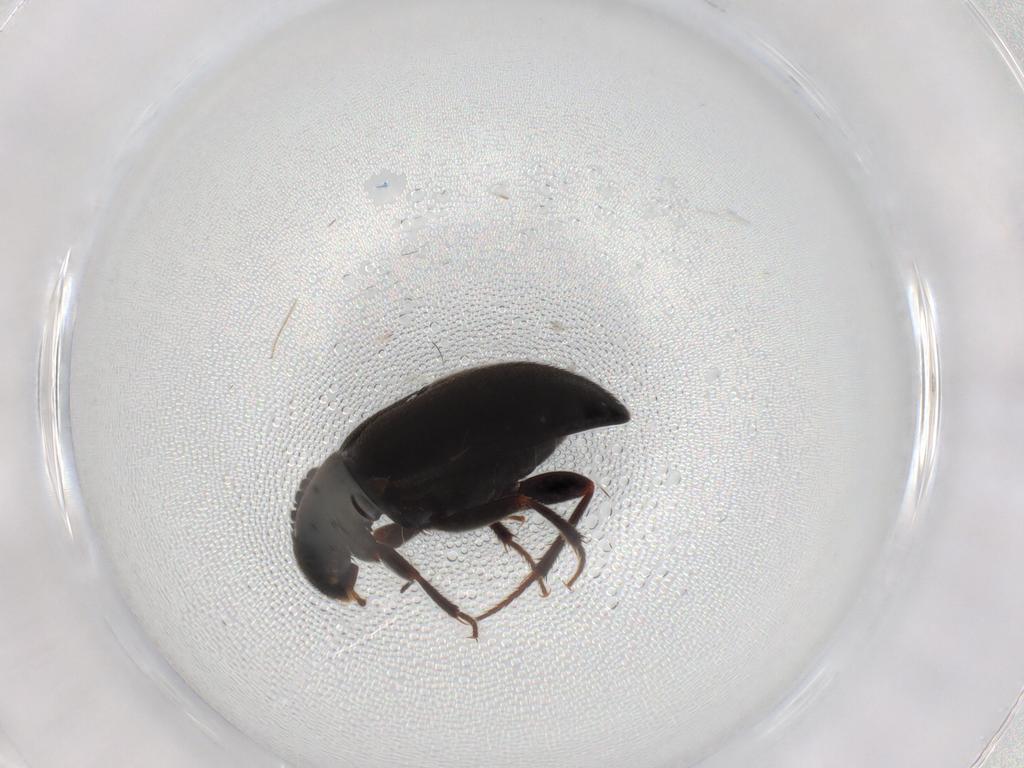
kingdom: Animalia
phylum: Arthropoda
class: Insecta
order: Coleoptera
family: Leiodidae
